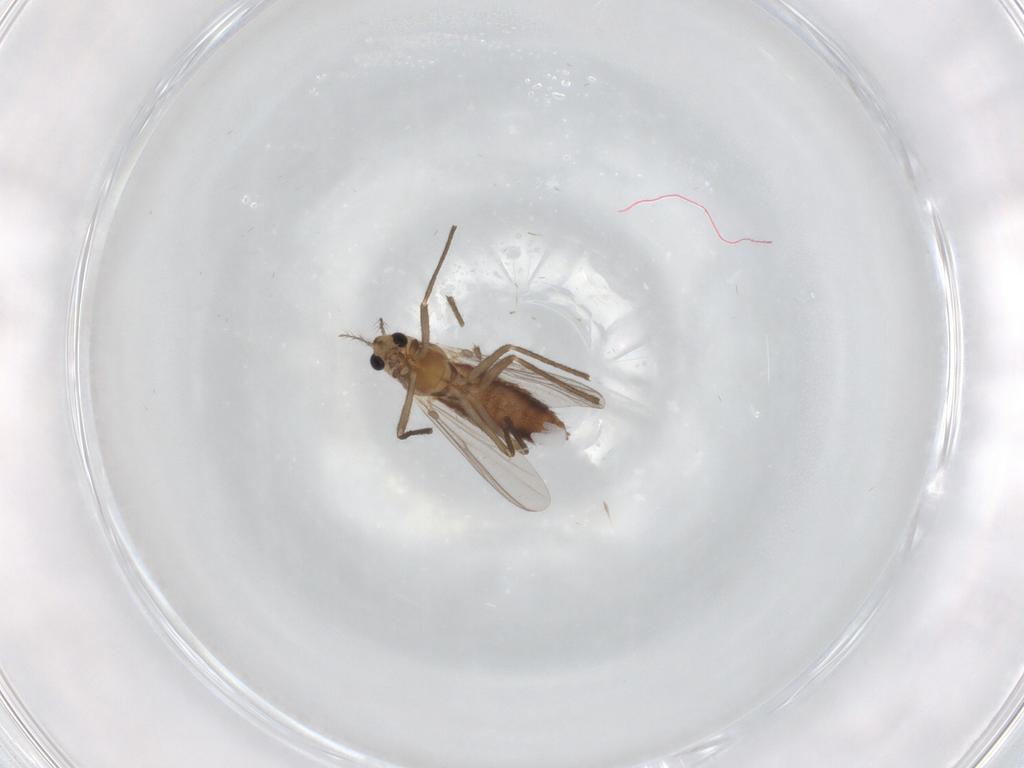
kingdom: Animalia
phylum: Arthropoda
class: Insecta
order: Diptera
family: Chironomidae
